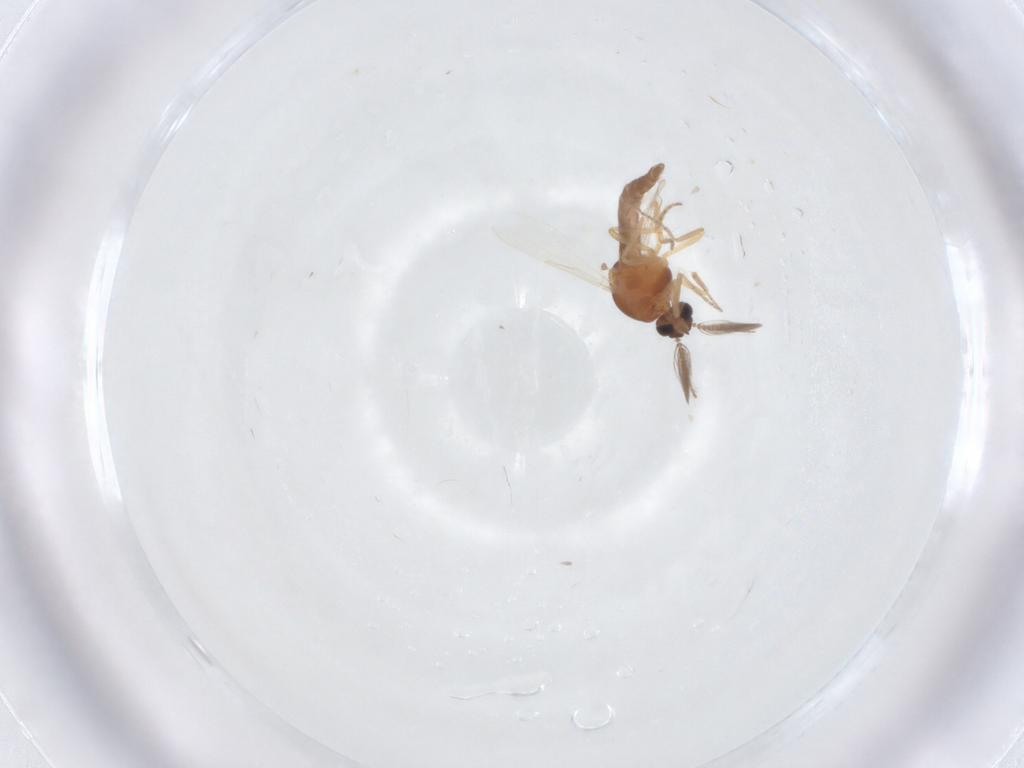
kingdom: Animalia
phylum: Arthropoda
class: Insecta
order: Diptera
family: Ceratopogonidae
